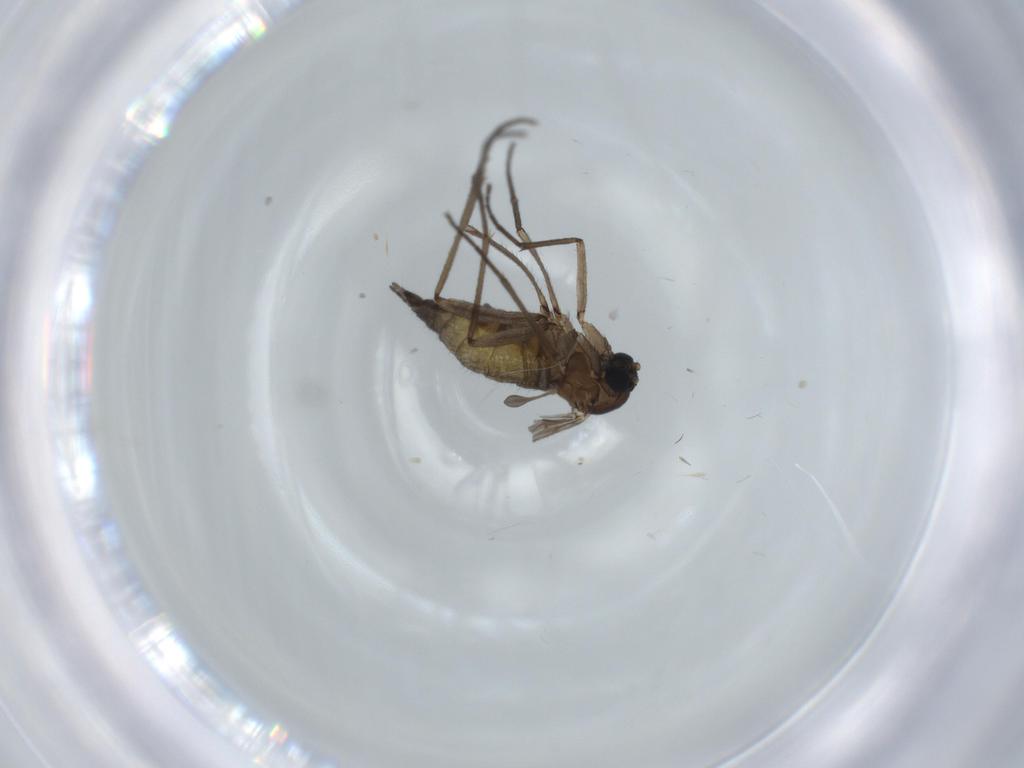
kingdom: Animalia
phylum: Arthropoda
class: Insecta
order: Diptera
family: Sciaridae
